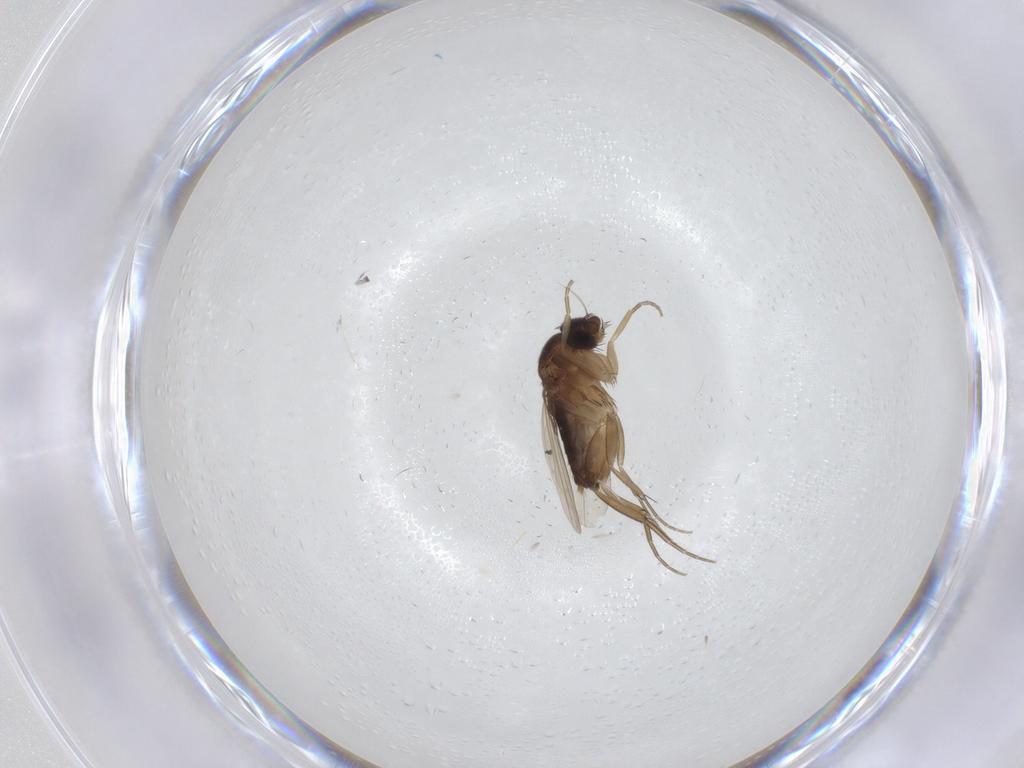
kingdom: Animalia
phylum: Arthropoda
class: Insecta
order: Diptera
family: Phoridae
